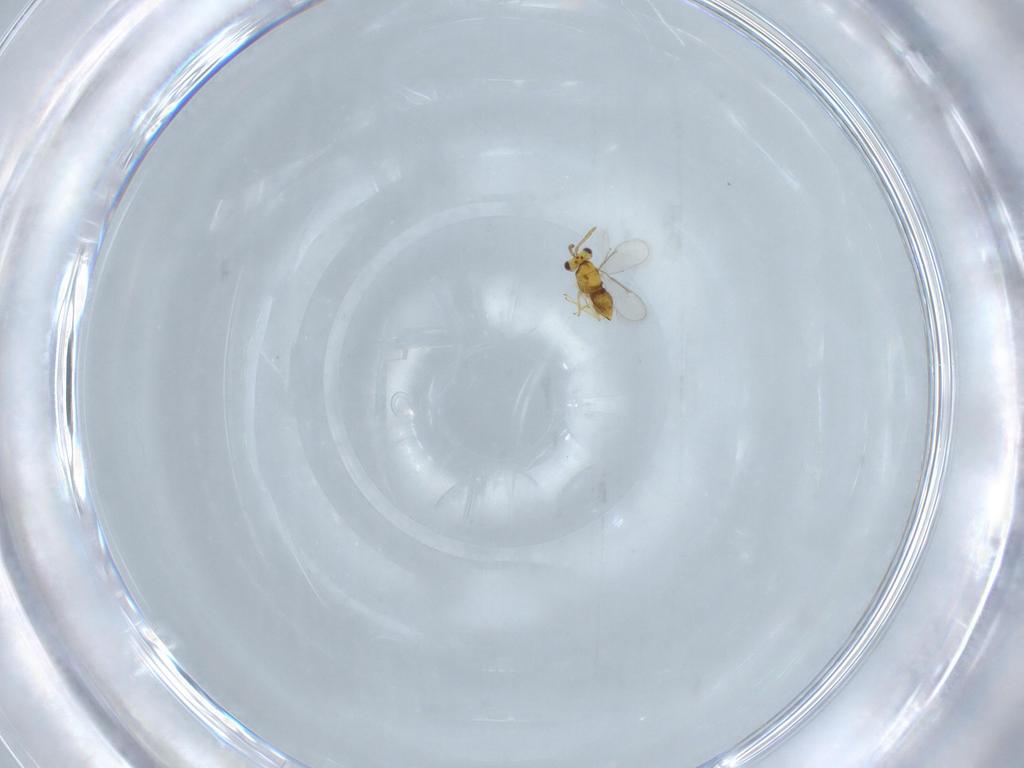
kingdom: Animalia
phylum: Arthropoda
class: Insecta
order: Hymenoptera
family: Aphelinidae
